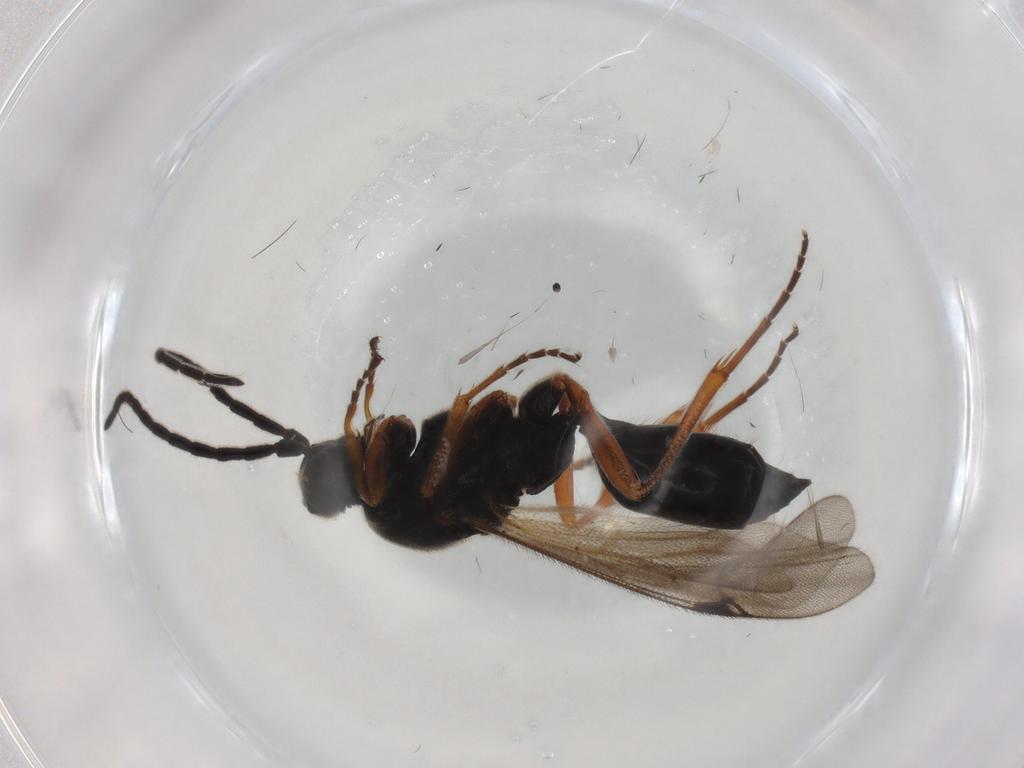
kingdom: Animalia
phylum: Arthropoda
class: Insecta
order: Hymenoptera
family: Proctotrupidae
